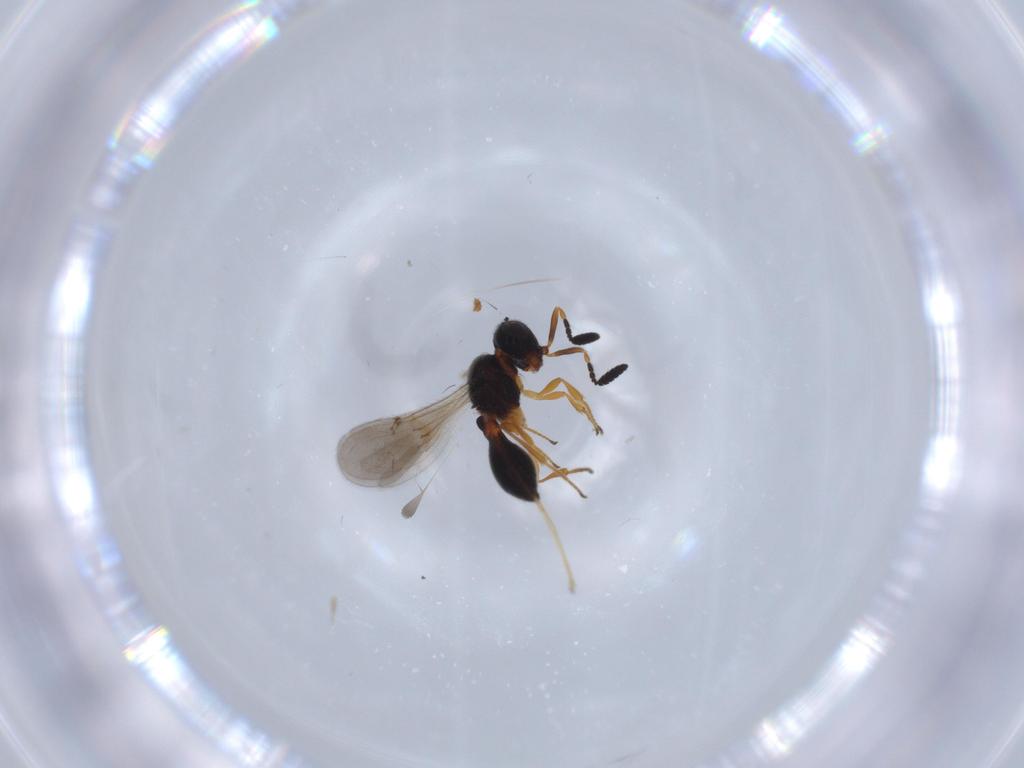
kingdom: Animalia
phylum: Arthropoda
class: Insecta
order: Hymenoptera
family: Scelionidae
